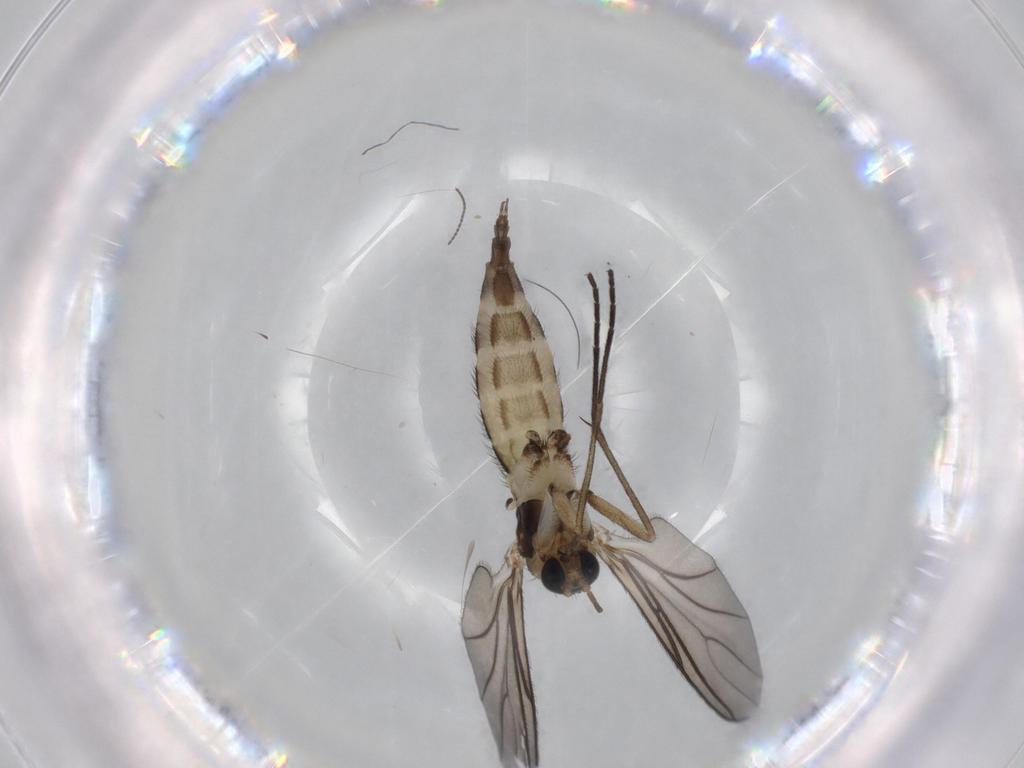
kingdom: Animalia
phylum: Arthropoda
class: Insecta
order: Diptera
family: Sciaridae
